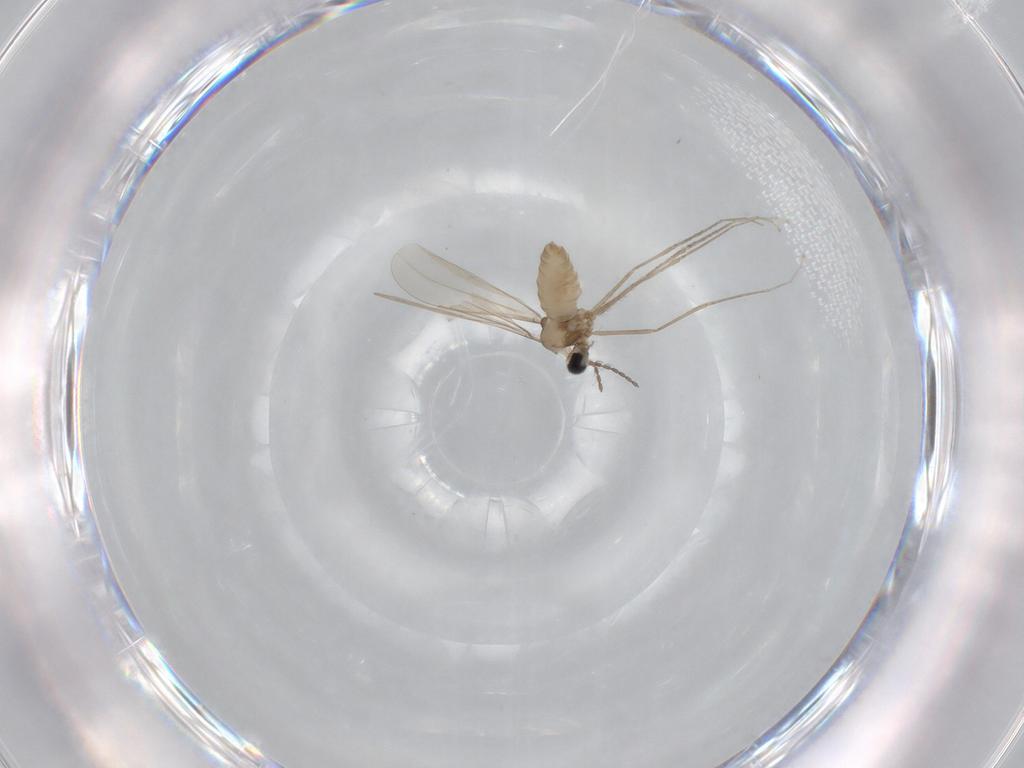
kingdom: Animalia
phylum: Arthropoda
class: Insecta
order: Diptera
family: Cecidomyiidae
